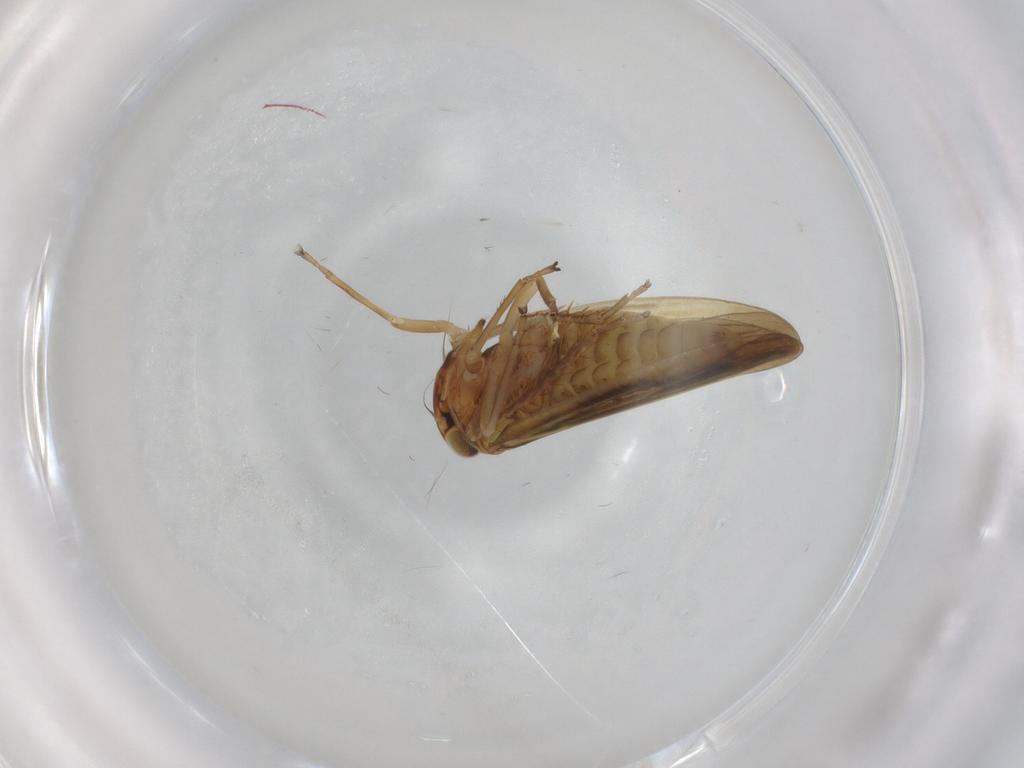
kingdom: Animalia
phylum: Arthropoda
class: Insecta
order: Hemiptera
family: Cicadellidae
